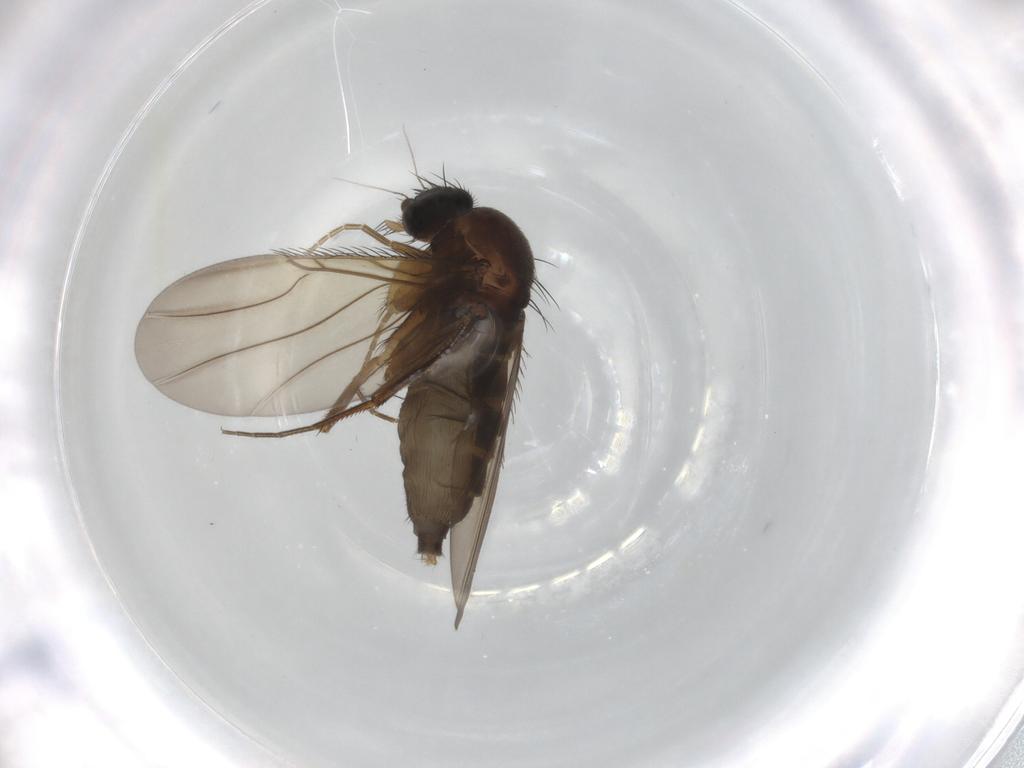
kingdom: Animalia
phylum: Arthropoda
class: Insecta
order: Diptera
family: Phoridae
